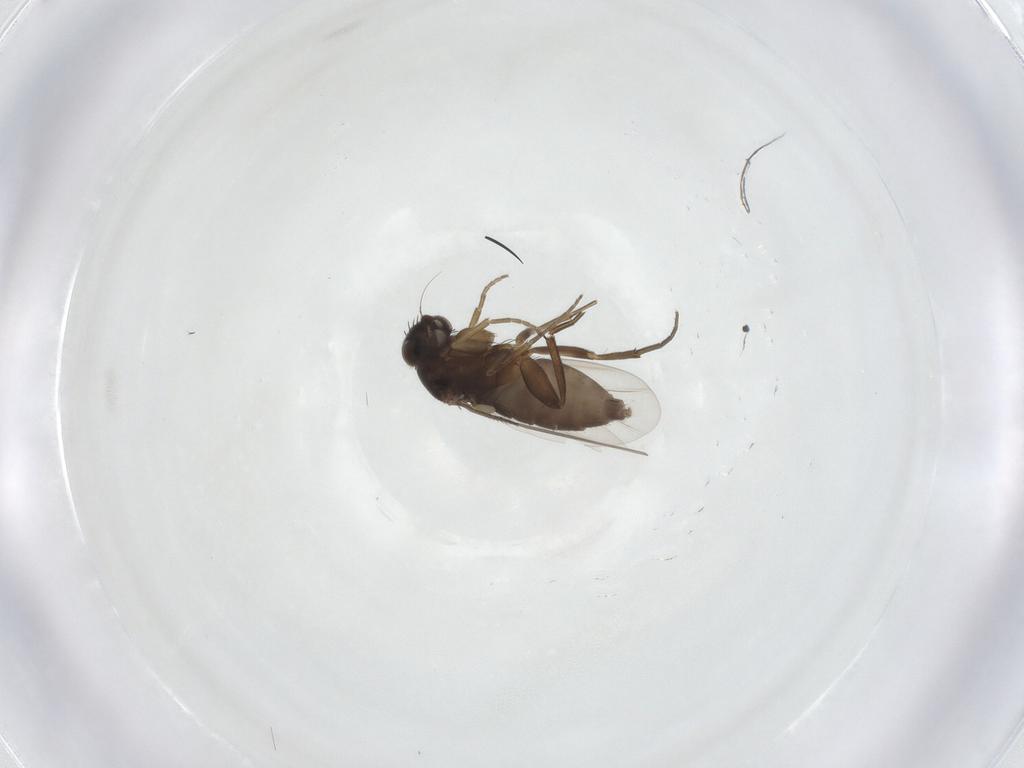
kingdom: Animalia
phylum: Arthropoda
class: Insecta
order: Diptera
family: Phoridae
